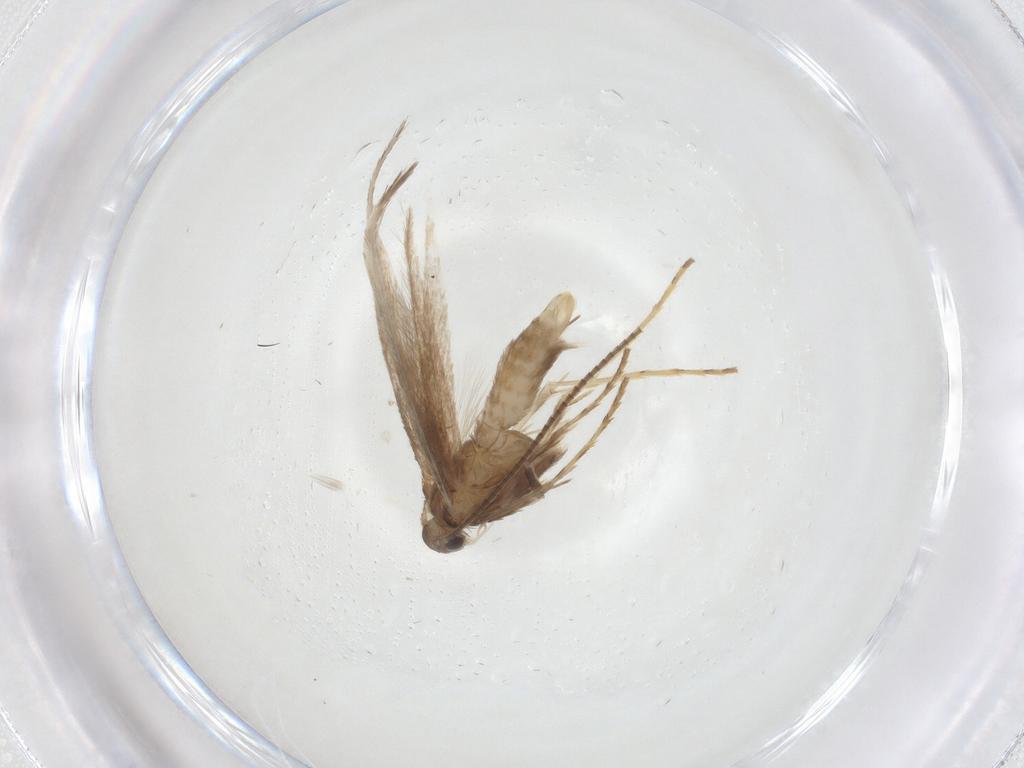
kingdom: Animalia
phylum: Arthropoda
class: Insecta
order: Lepidoptera
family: Gracillariidae
